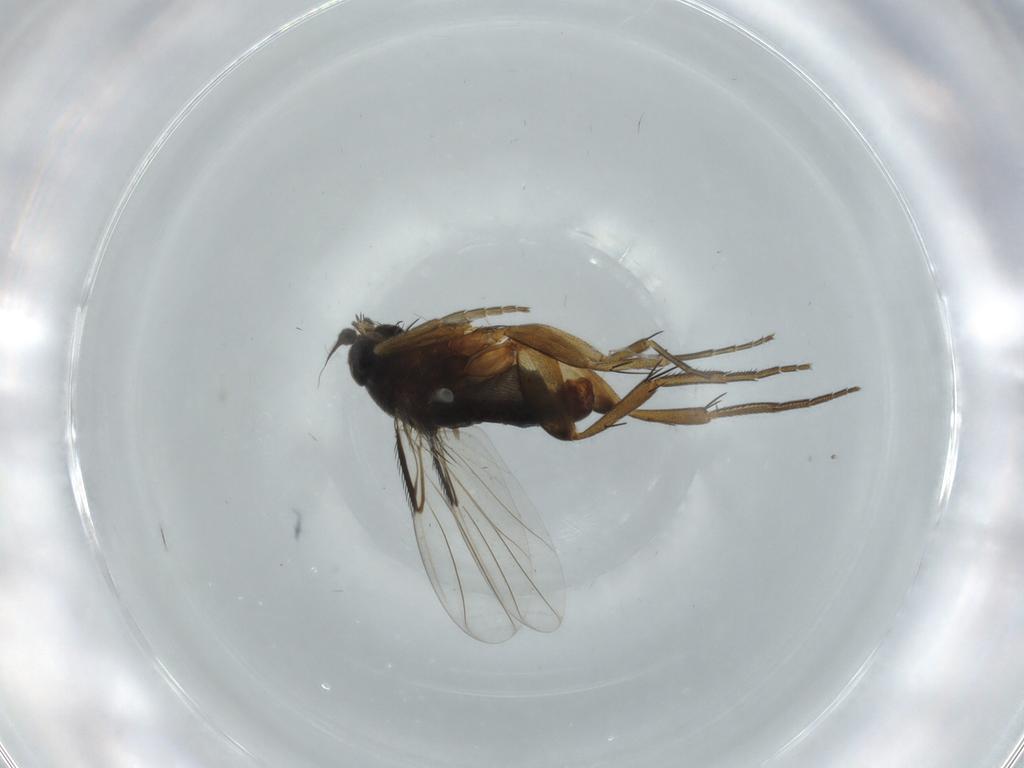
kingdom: Animalia
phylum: Arthropoda
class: Insecta
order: Diptera
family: Phoridae
